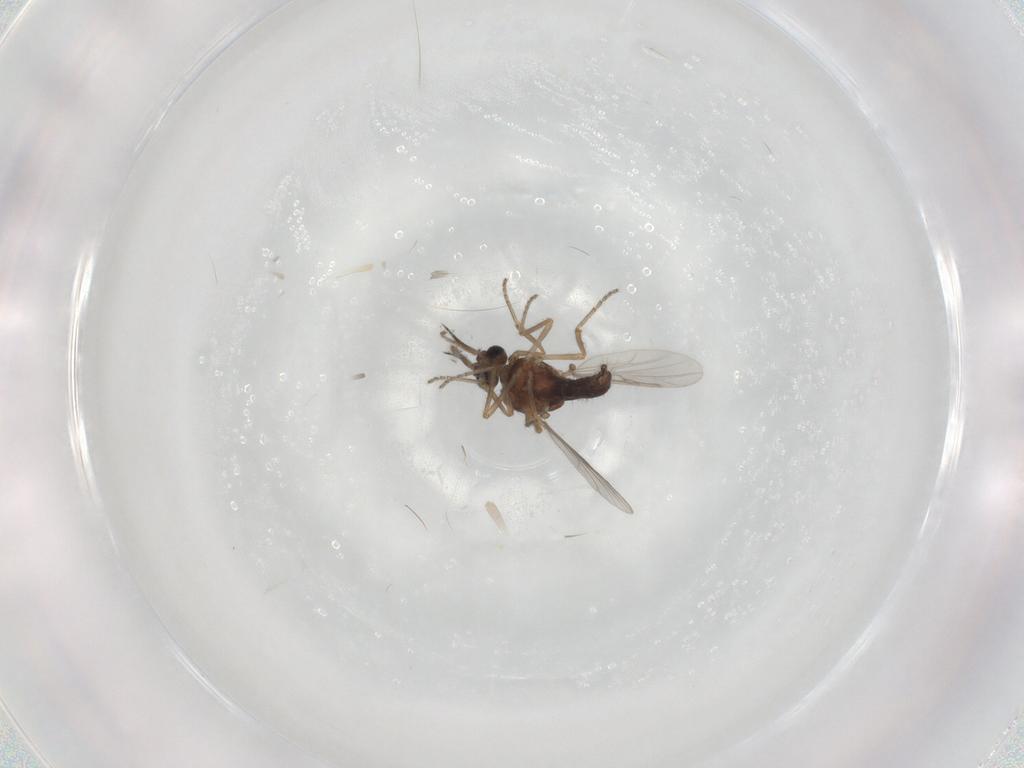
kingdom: Animalia
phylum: Arthropoda
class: Insecta
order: Diptera
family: Ceratopogonidae
